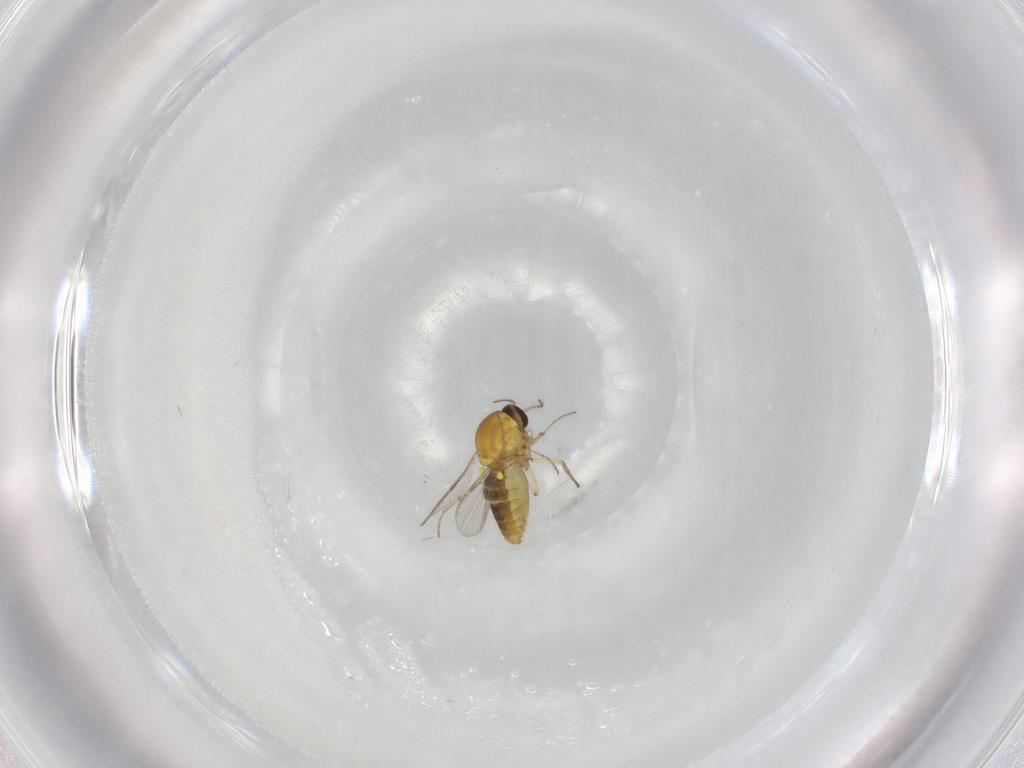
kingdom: Animalia
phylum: Arthropoda
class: Insecta
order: Diptera
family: Ceratopogonidae
